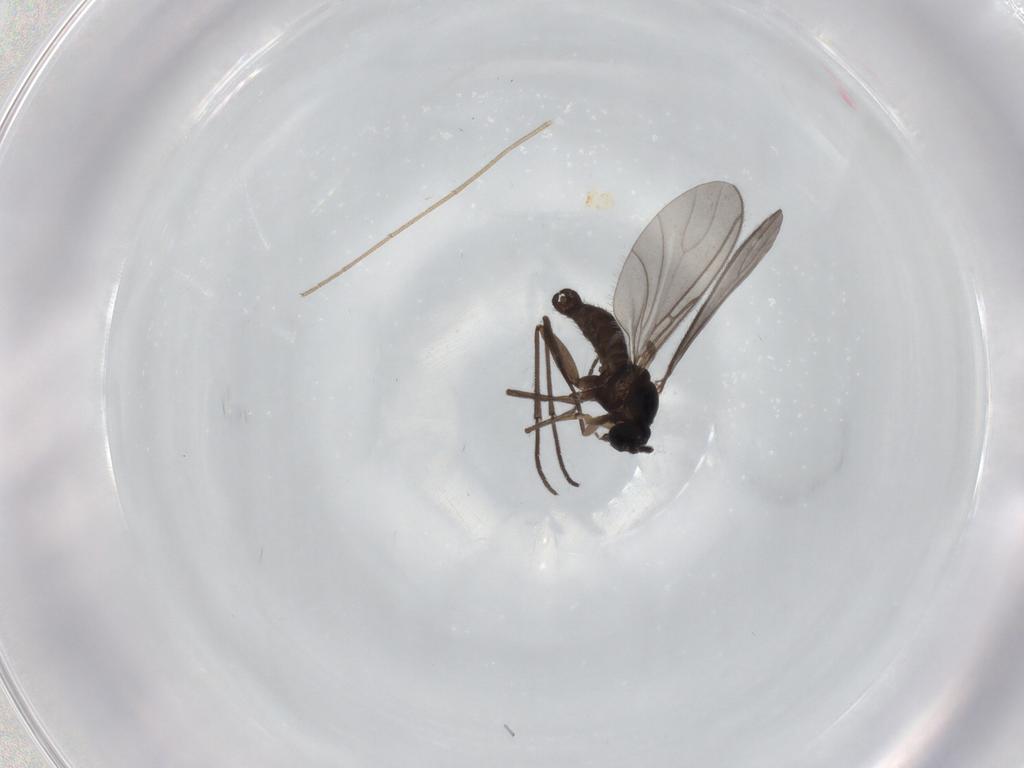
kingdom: Animalia
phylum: Arthropoda
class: Insecta
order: Diptera
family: Sciaridae
